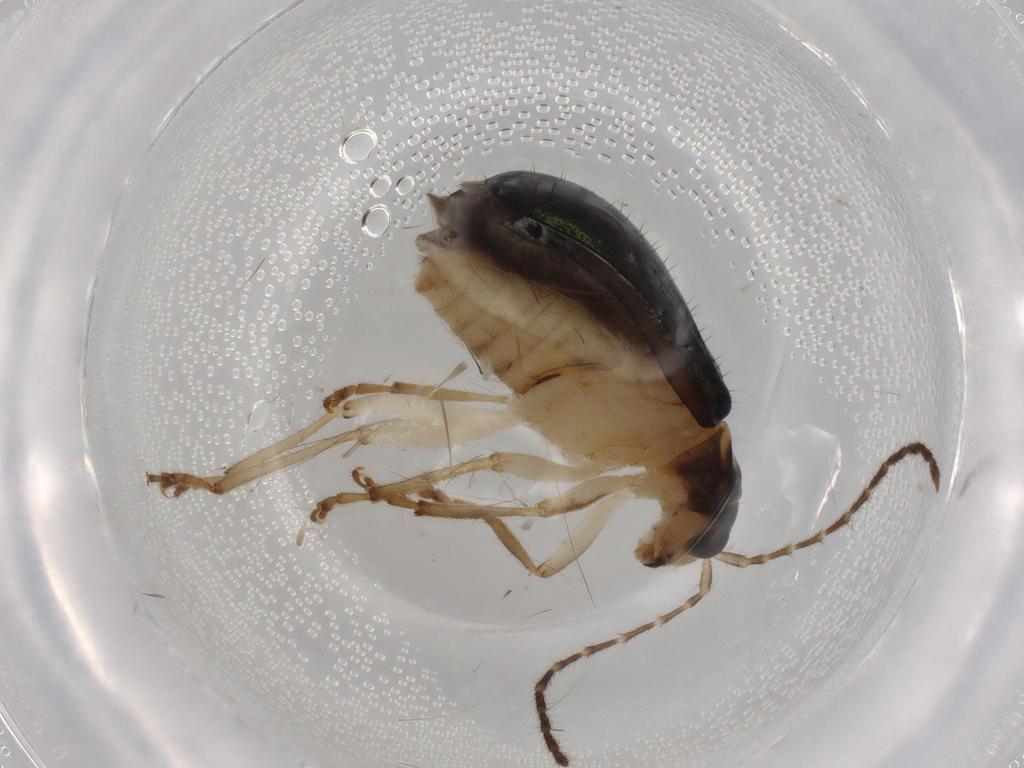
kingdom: Animalia
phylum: Arthropoda
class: Insecta
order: Coleoptera
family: Chrysomelidae
